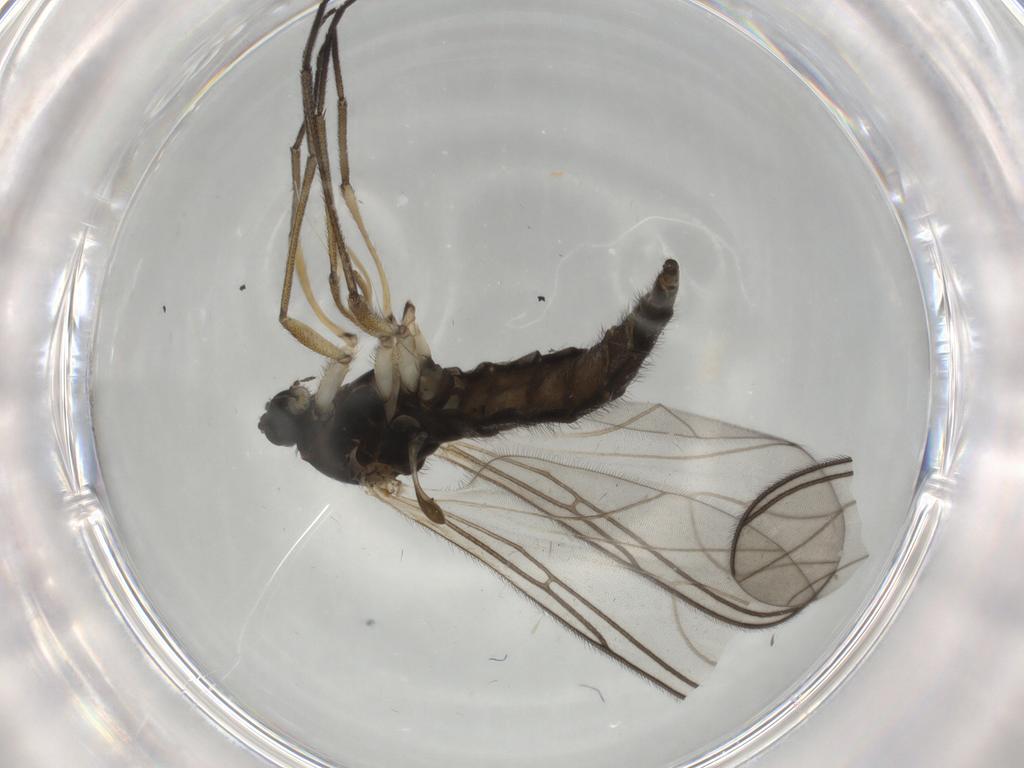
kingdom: Animalia
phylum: Arthropoda
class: Insecta
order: Diptera
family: Sciaridae
